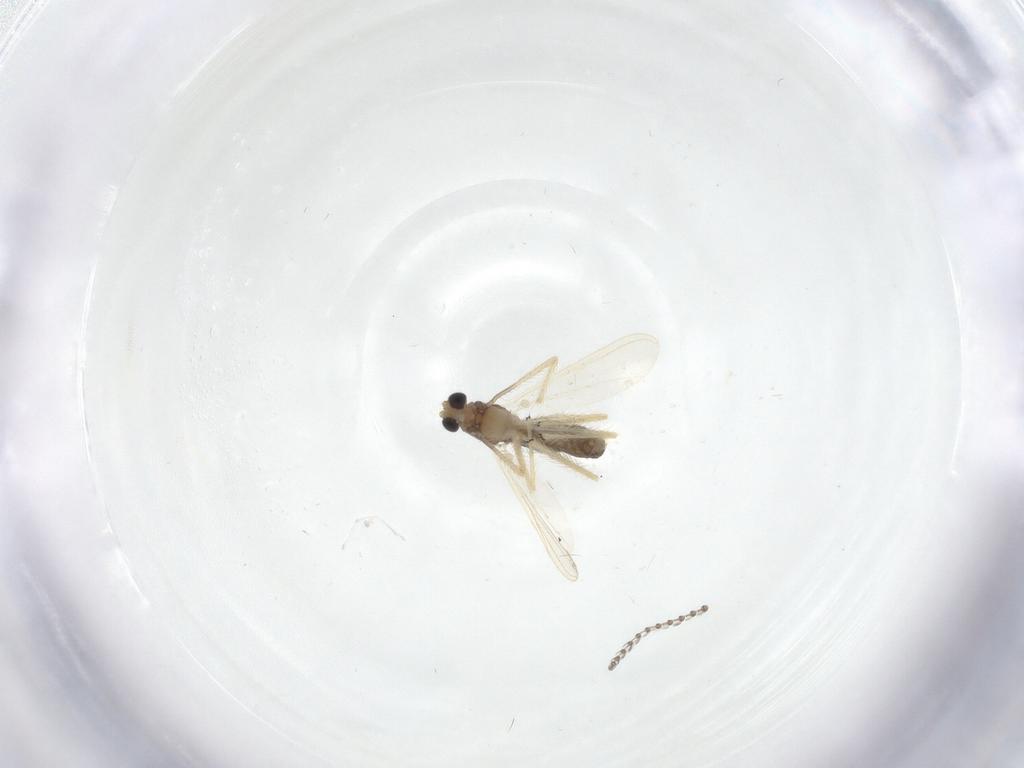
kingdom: Animalia
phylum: Arthropoda
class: Insecta
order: Diptera
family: Chironomidae
